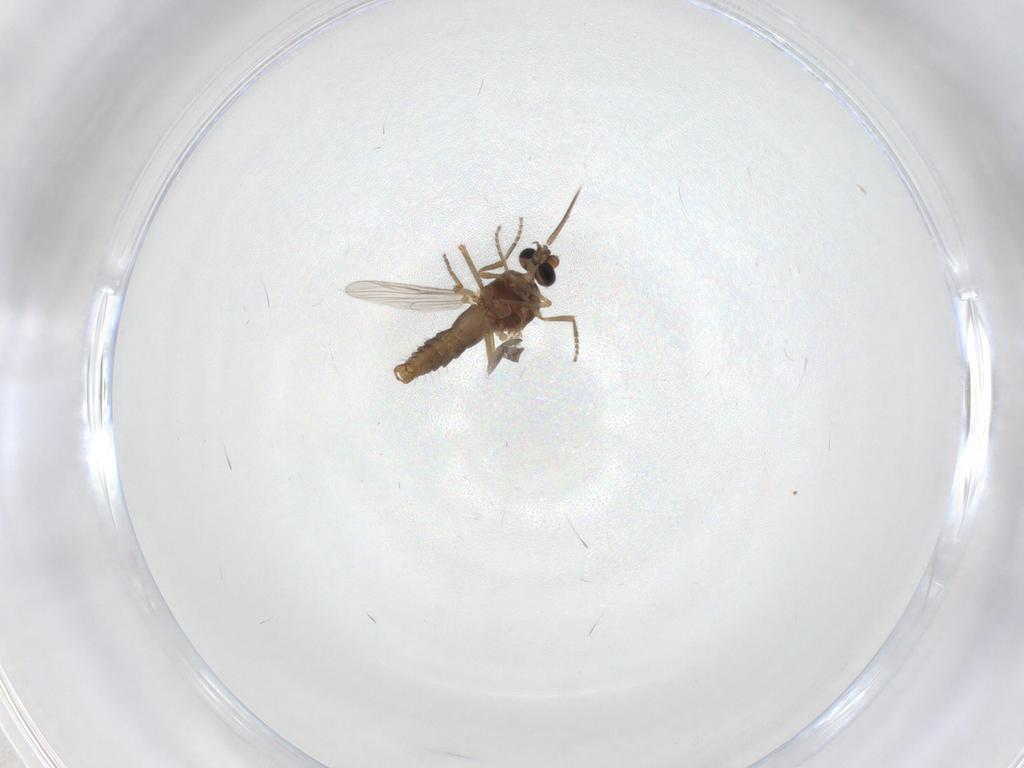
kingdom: Animalia
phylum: Arthropoda
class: Insecta
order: Diptera
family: Ceratopogonidae
